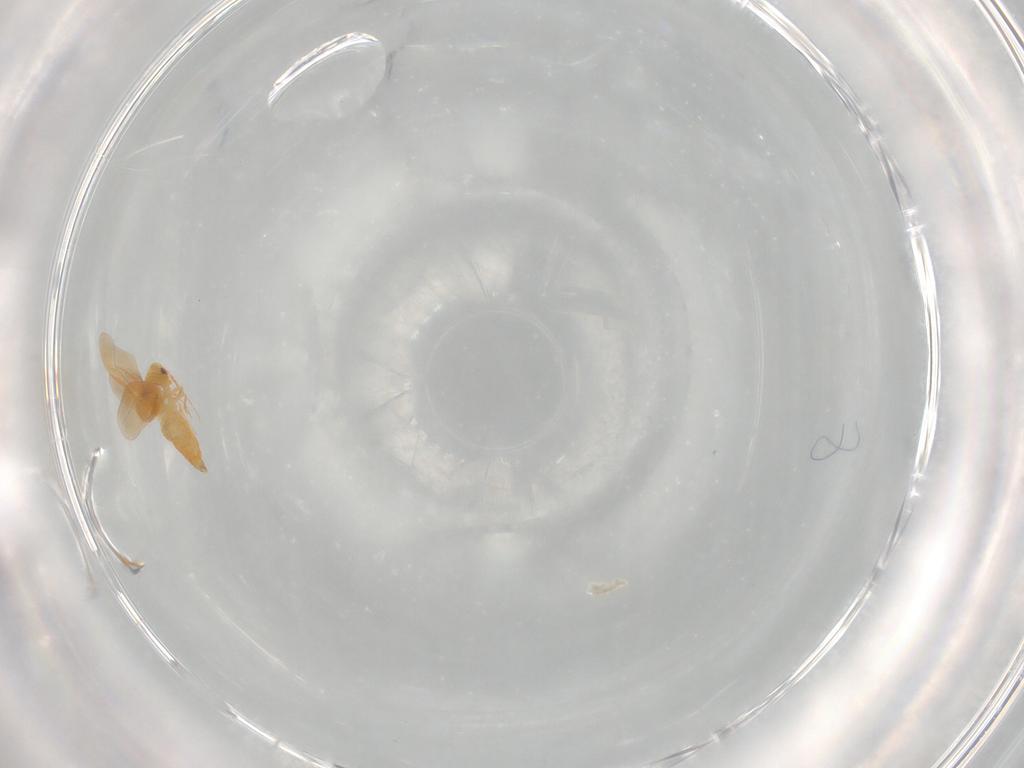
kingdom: Animalia
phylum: Arthropoda
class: Insecta
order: Hemiptera
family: Aleyrodidae
